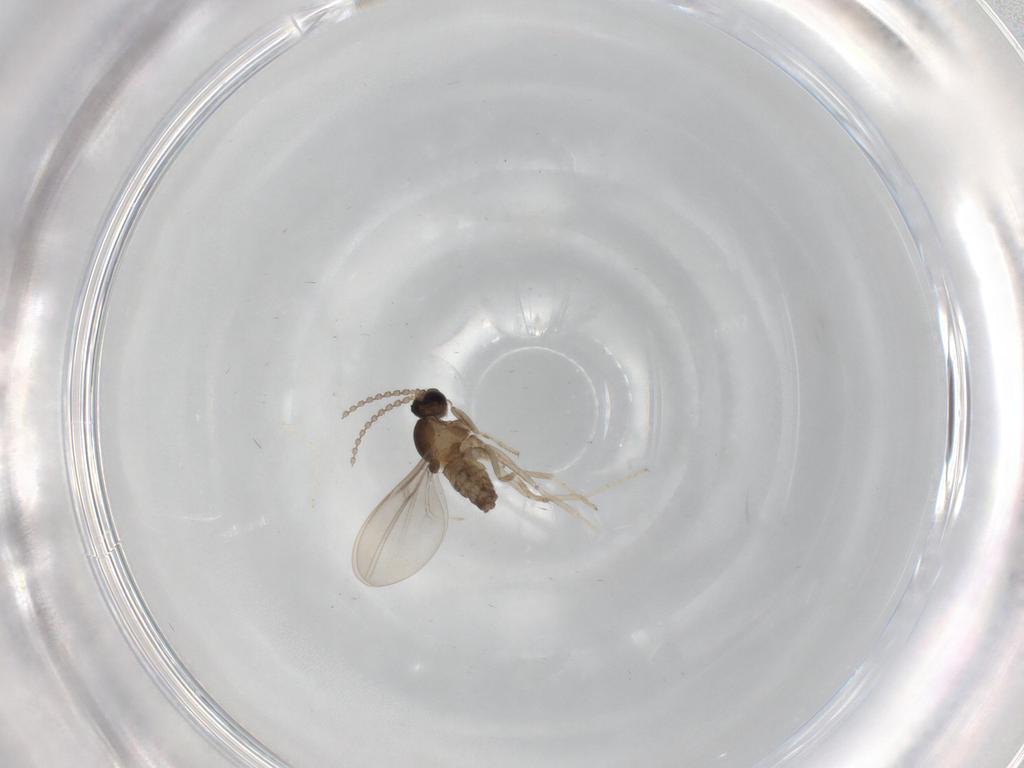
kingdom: Animalia
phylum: Arthropoda
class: Insecta
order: Diptera
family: Cecidomyiidae
